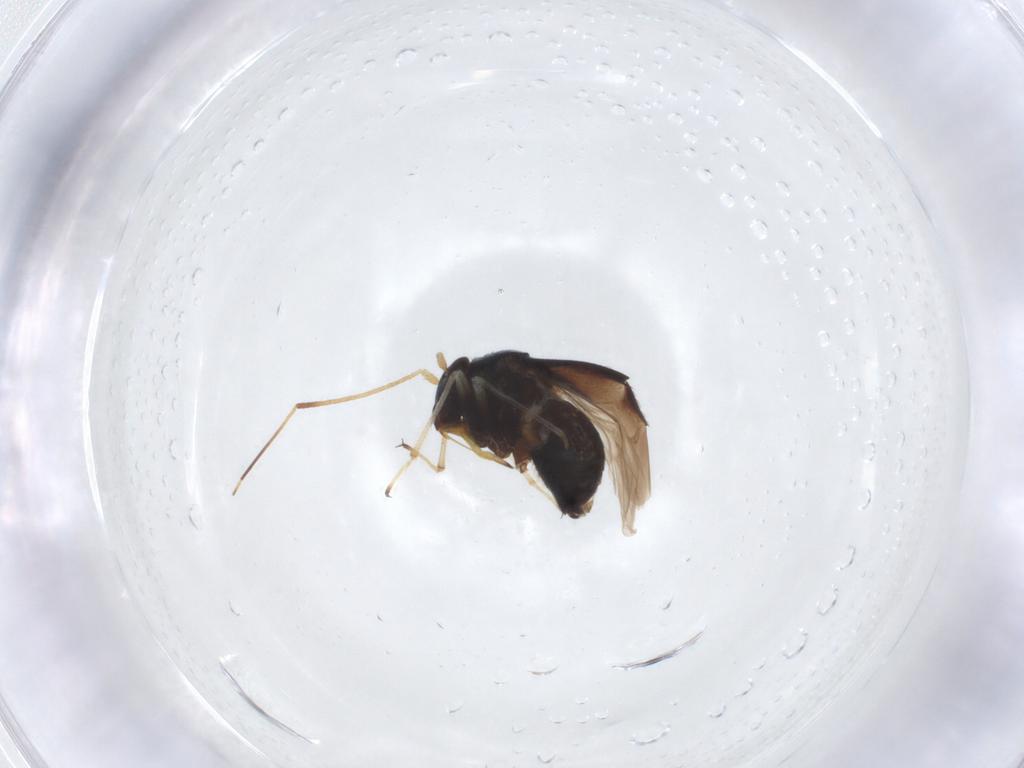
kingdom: Animalia
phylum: Arthropoda
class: Insecta
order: Hemiptera
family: Miridae
